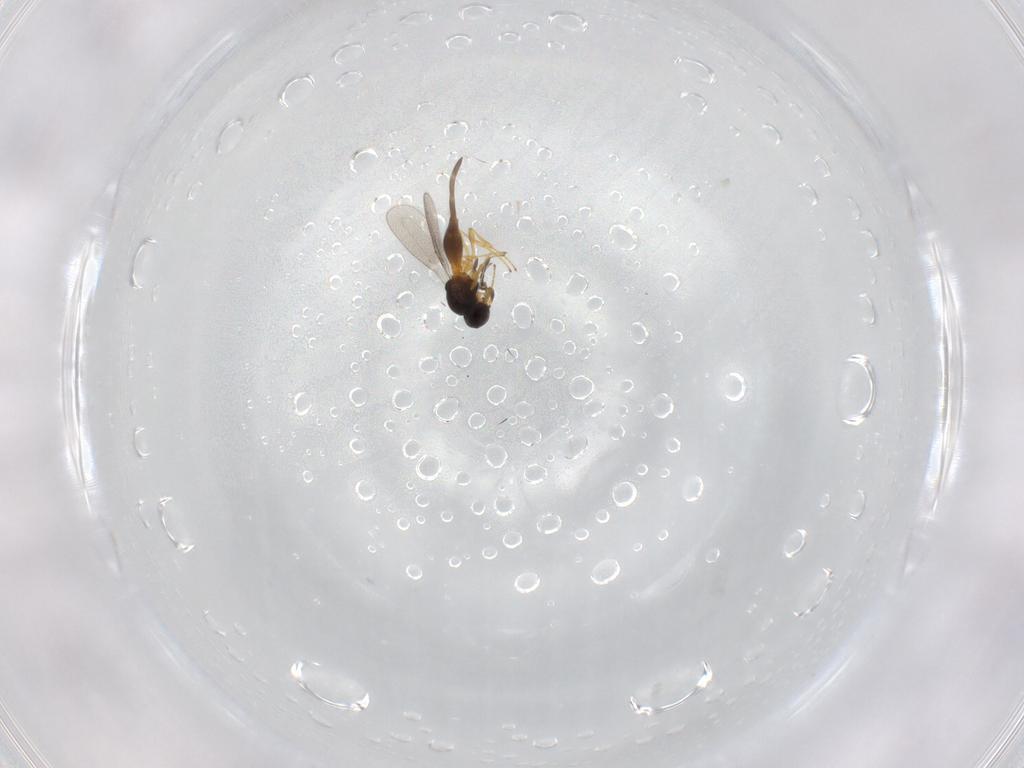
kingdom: Animalia
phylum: Arthropoda
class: Insecta
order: Hymenoptera
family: Platygastridae
